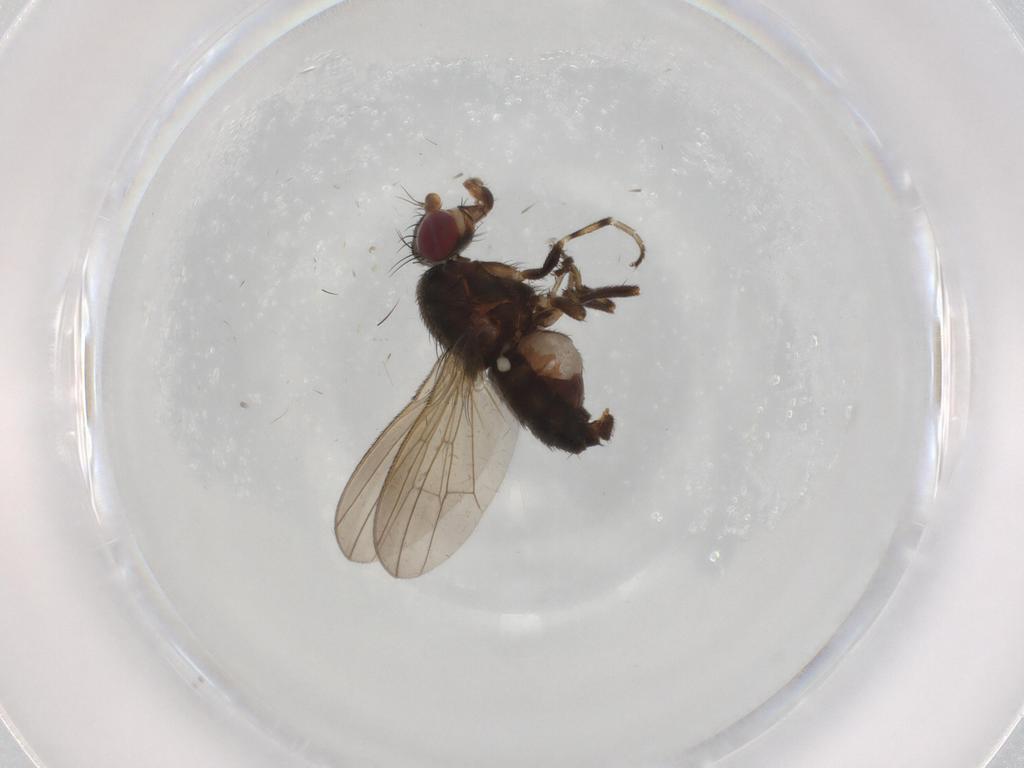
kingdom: Animalia
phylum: Arthropoda
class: Insecta
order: Diptera
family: Heleomyzidae
